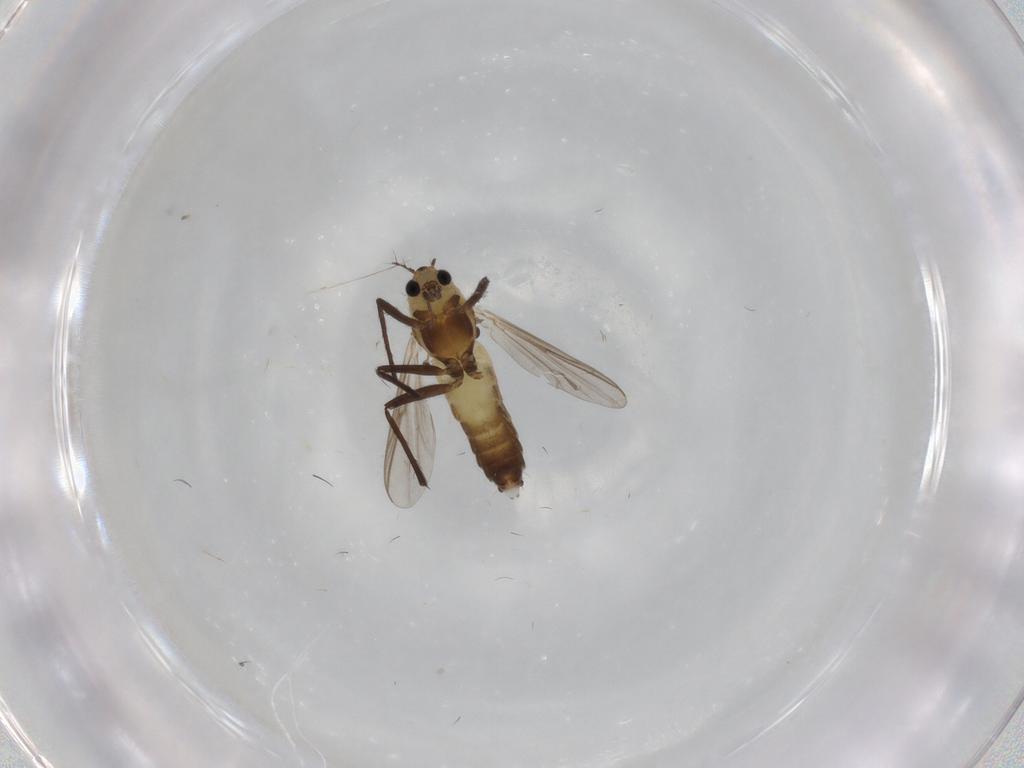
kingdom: Animalia
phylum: Arthropoda
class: Insecta
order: Diptera
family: Chironomidae
